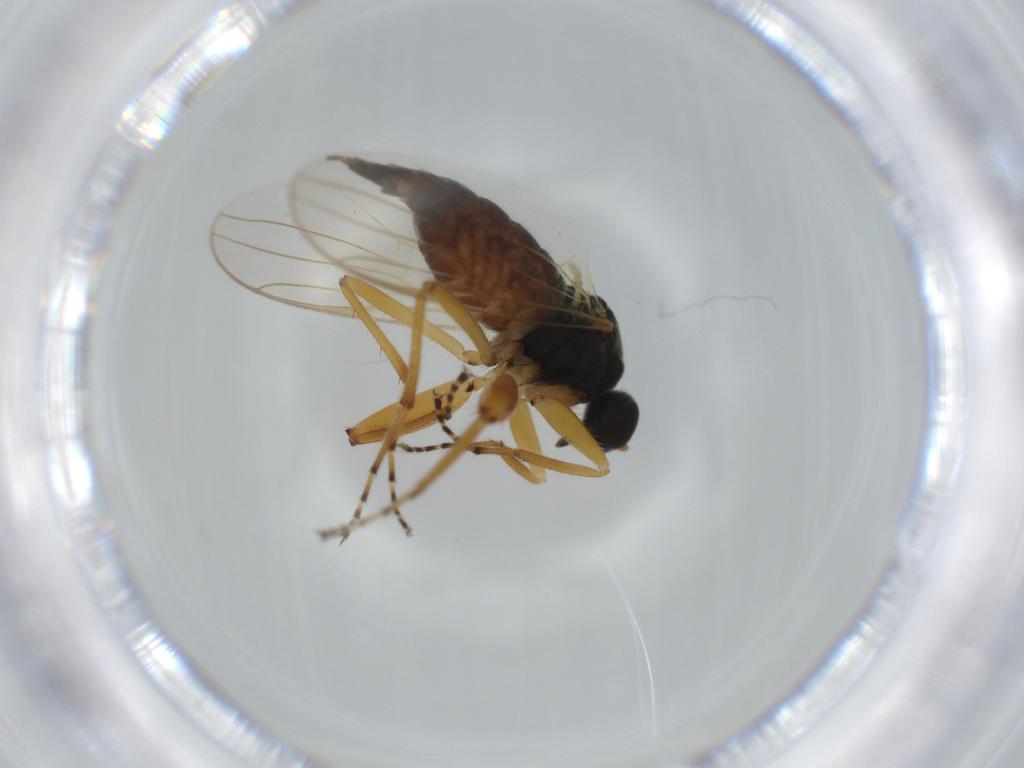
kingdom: Animalia
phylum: Arthropoda
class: Insecta
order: Diptera
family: Hybotidae
